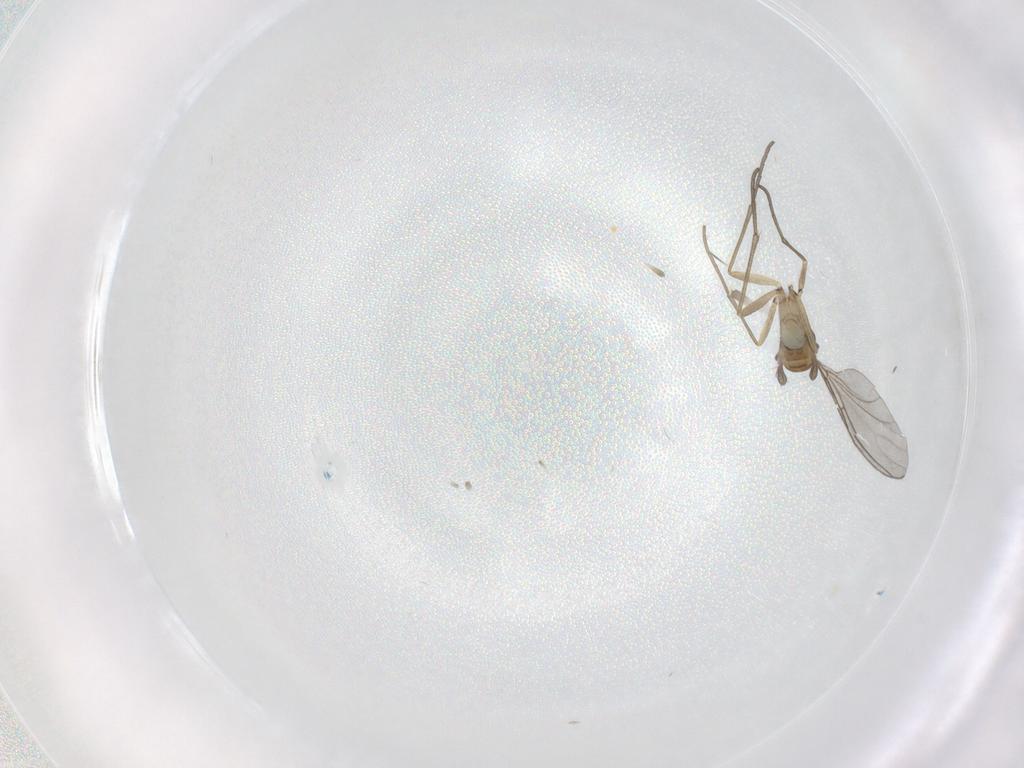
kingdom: Animalia
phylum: Arthropoda
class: Insecta
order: Diptera
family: Sciaridae
